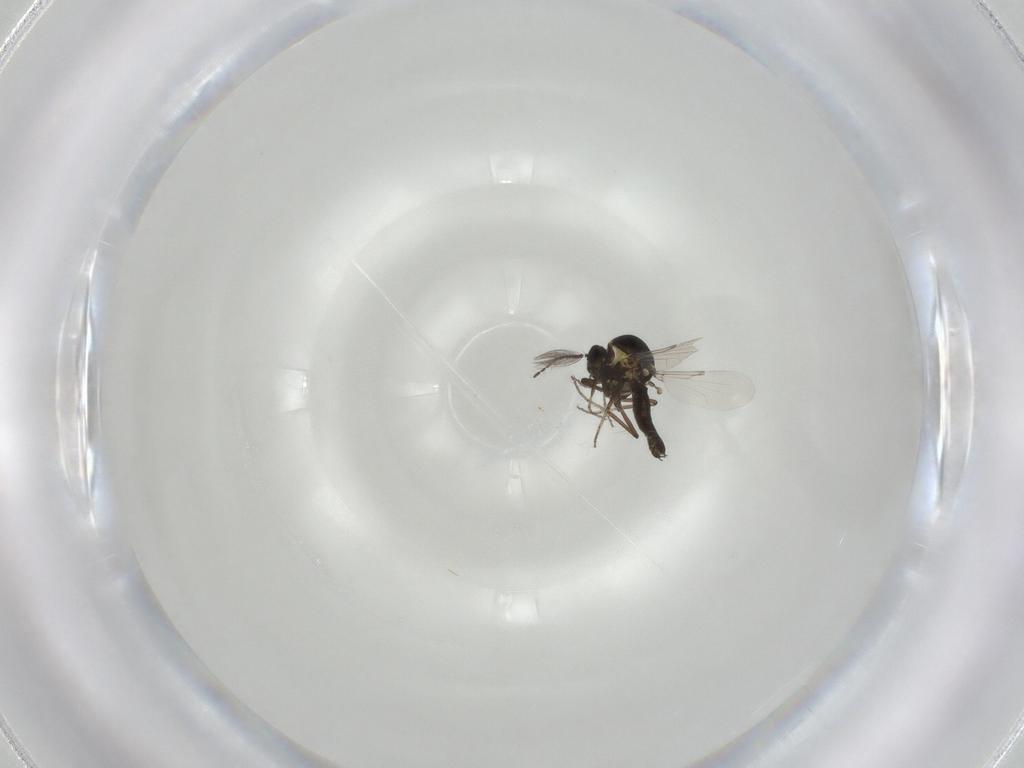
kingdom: Animalia
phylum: Arthropoda
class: Insecta
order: Diptera
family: Ceratopogonidae
